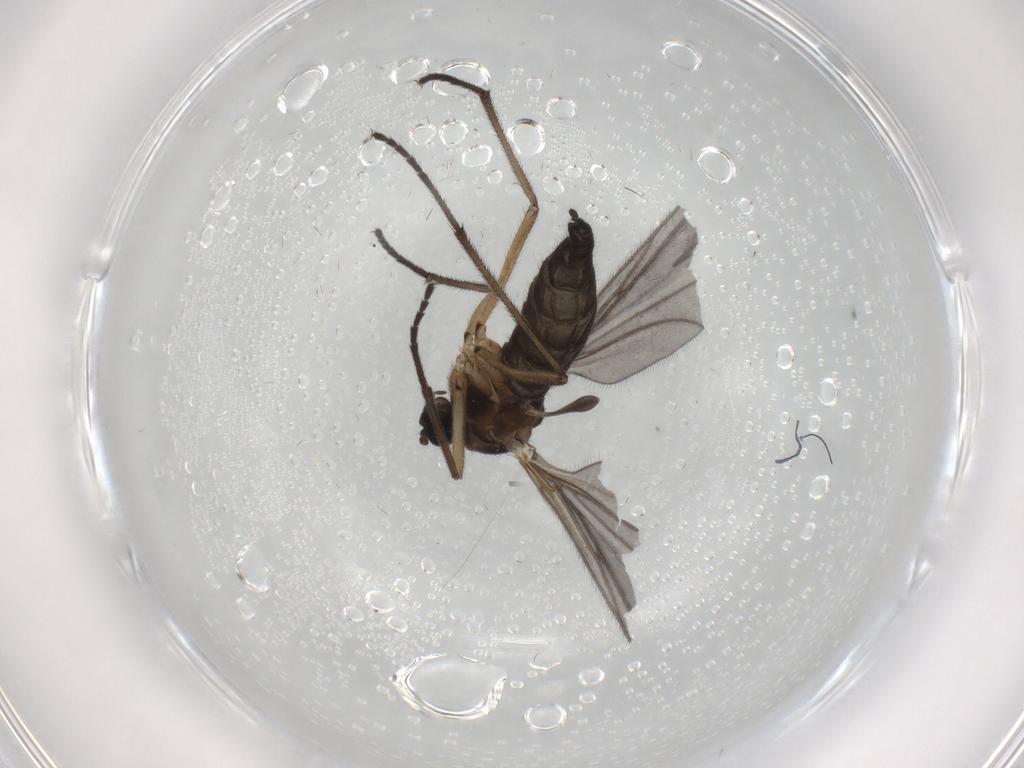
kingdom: Animalia
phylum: Arthropoda
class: Insecta
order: Diptera
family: Sciaridae
